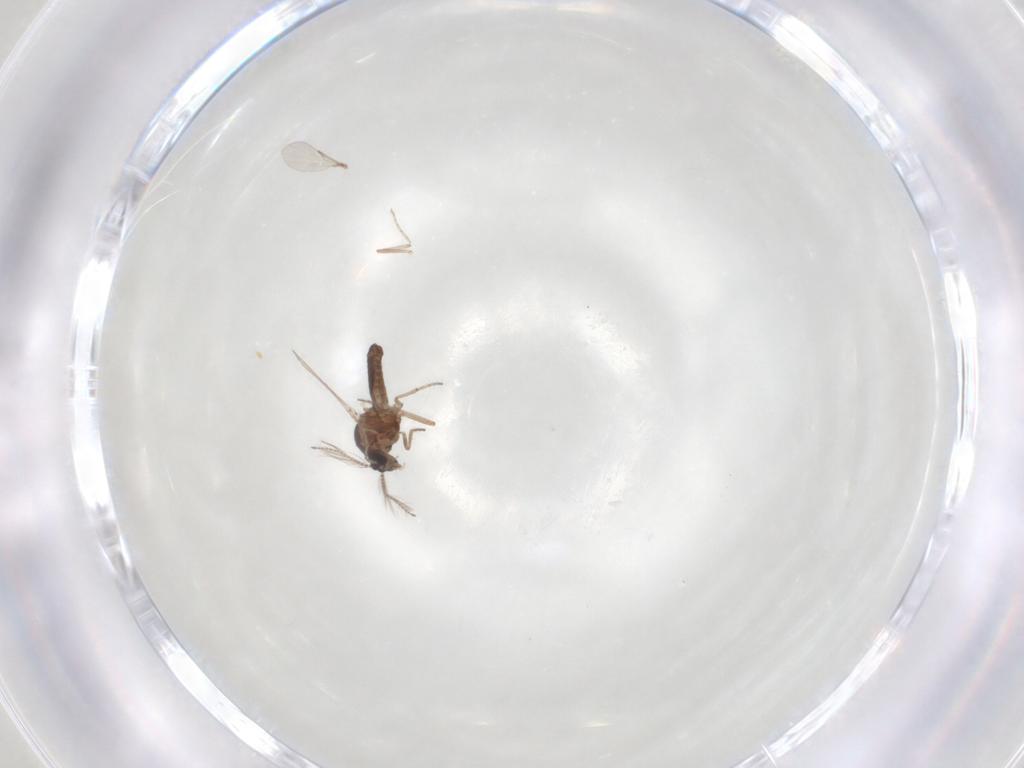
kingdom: Animalia
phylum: Arthropoda
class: Insecta
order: Diptera
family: Ceratopogonidae
